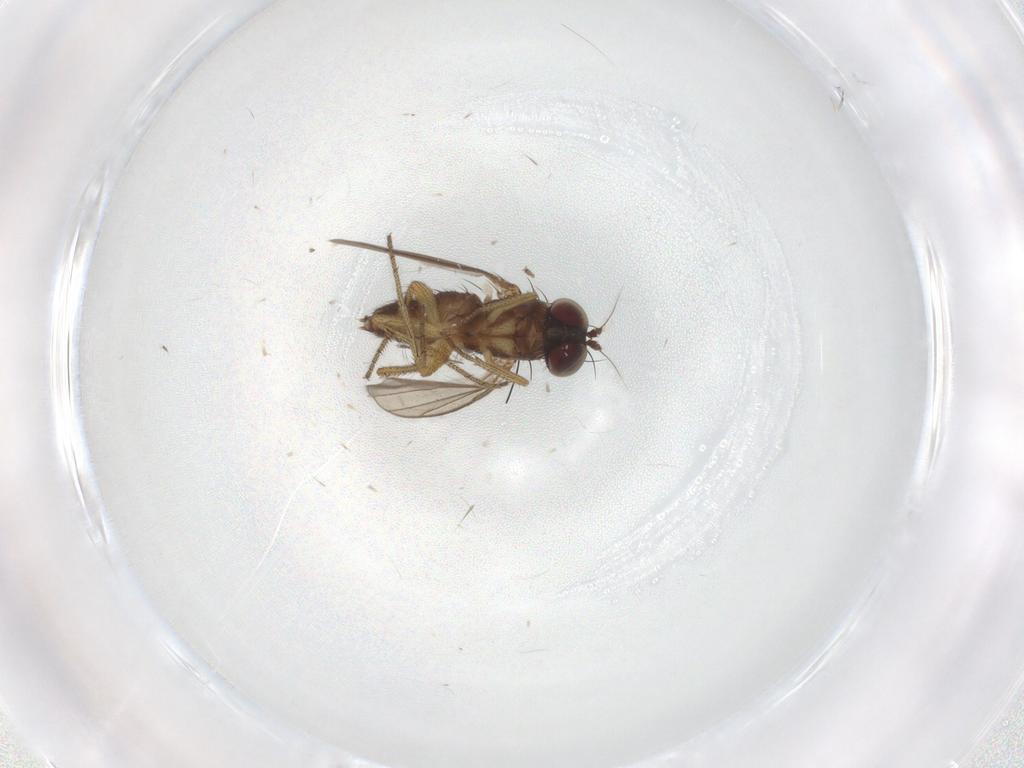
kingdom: Animalia
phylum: Arthropoda
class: Insecta
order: Diptera
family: Dolichopodidae
